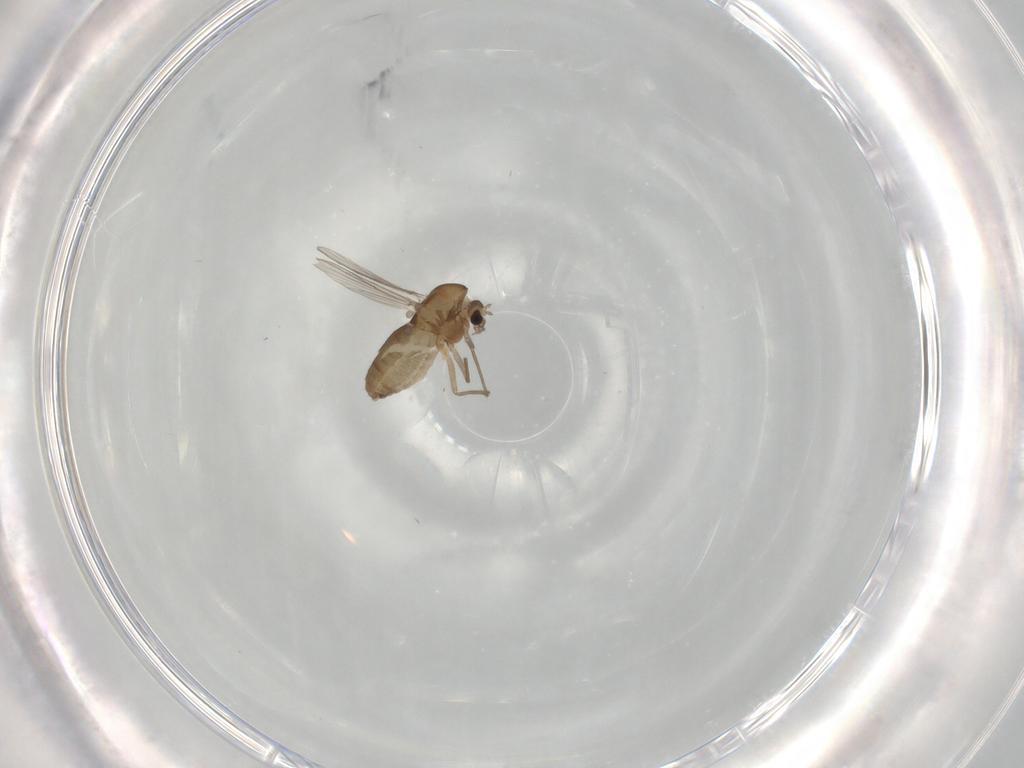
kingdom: Animalia
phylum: Arthropoda
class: Insecta
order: Diptera
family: Chironomidae
